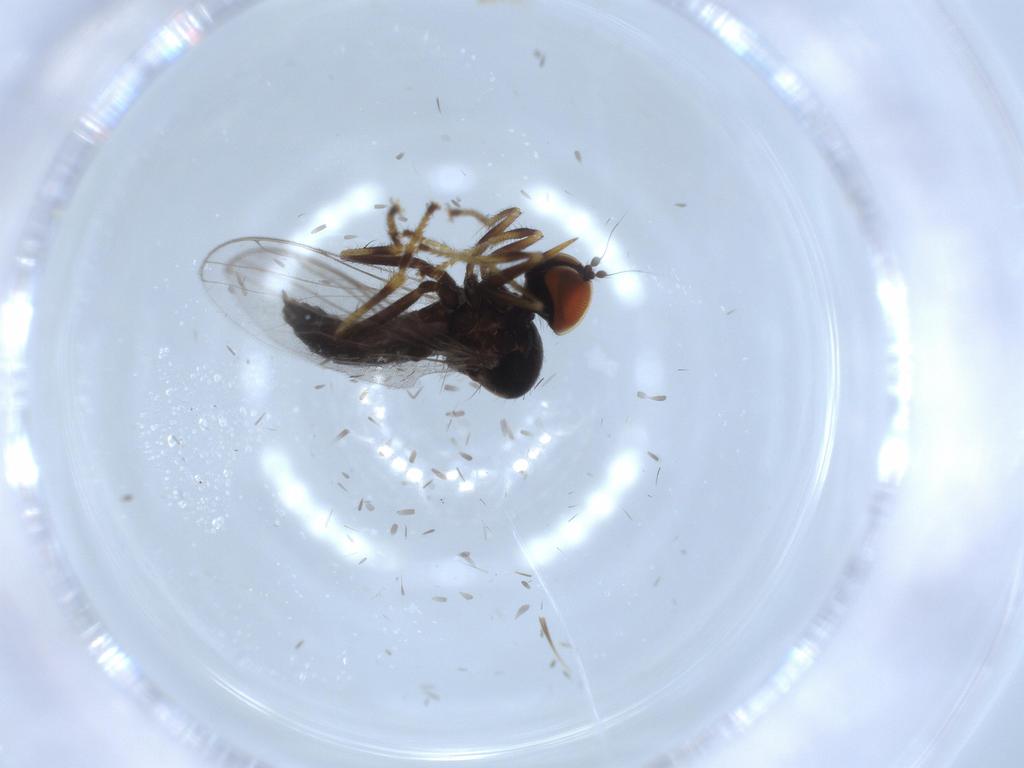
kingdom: Animalia
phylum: Arthropoda
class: Insecta
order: Diptera
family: Hybotidae
